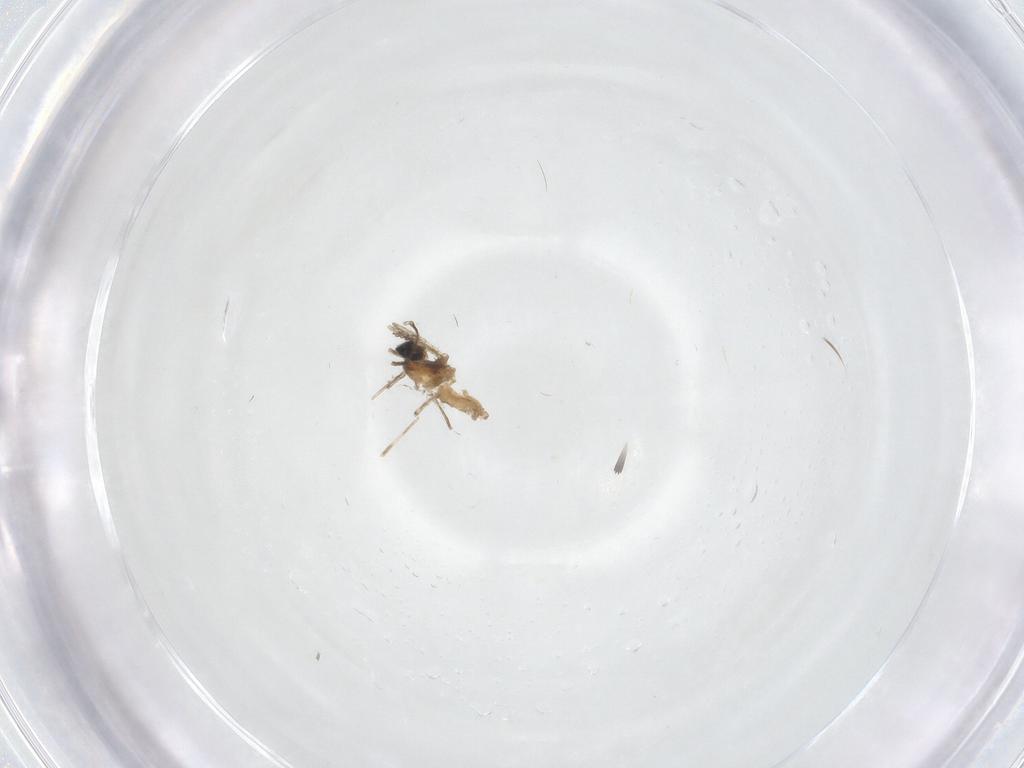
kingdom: Animalia
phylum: Arthropoda
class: Insecta
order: Diptera
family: Cecidomyiidae
